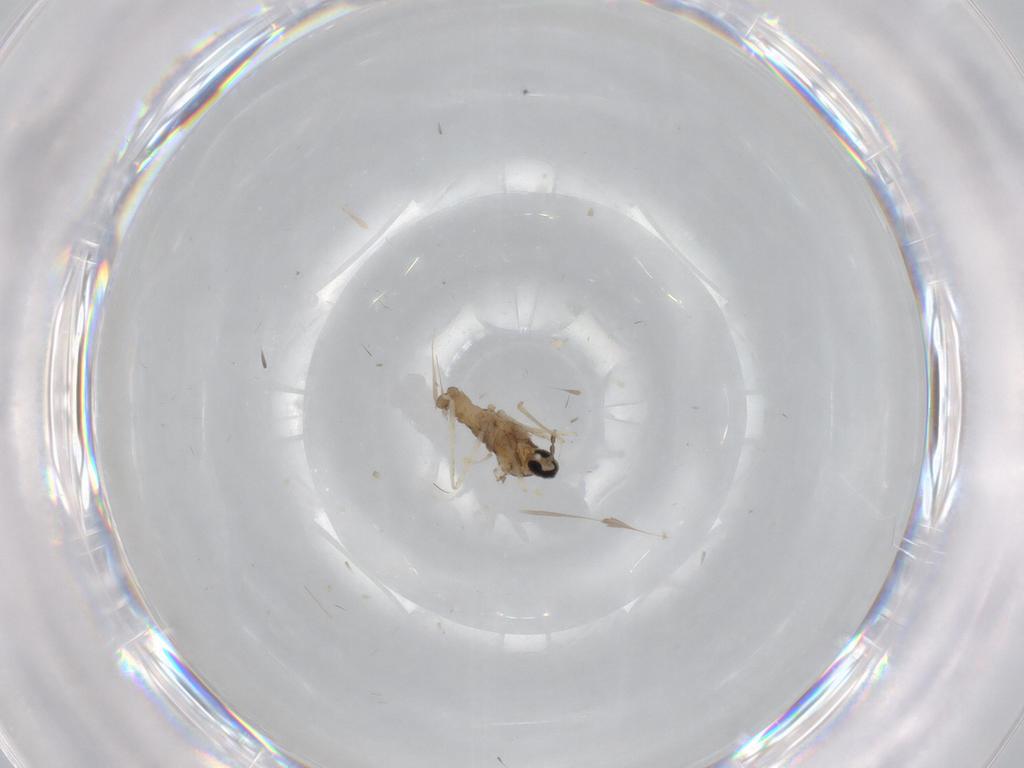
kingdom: Animalia
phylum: Arthropoda
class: Insecta
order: Diptera
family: Cecidomyiidae
